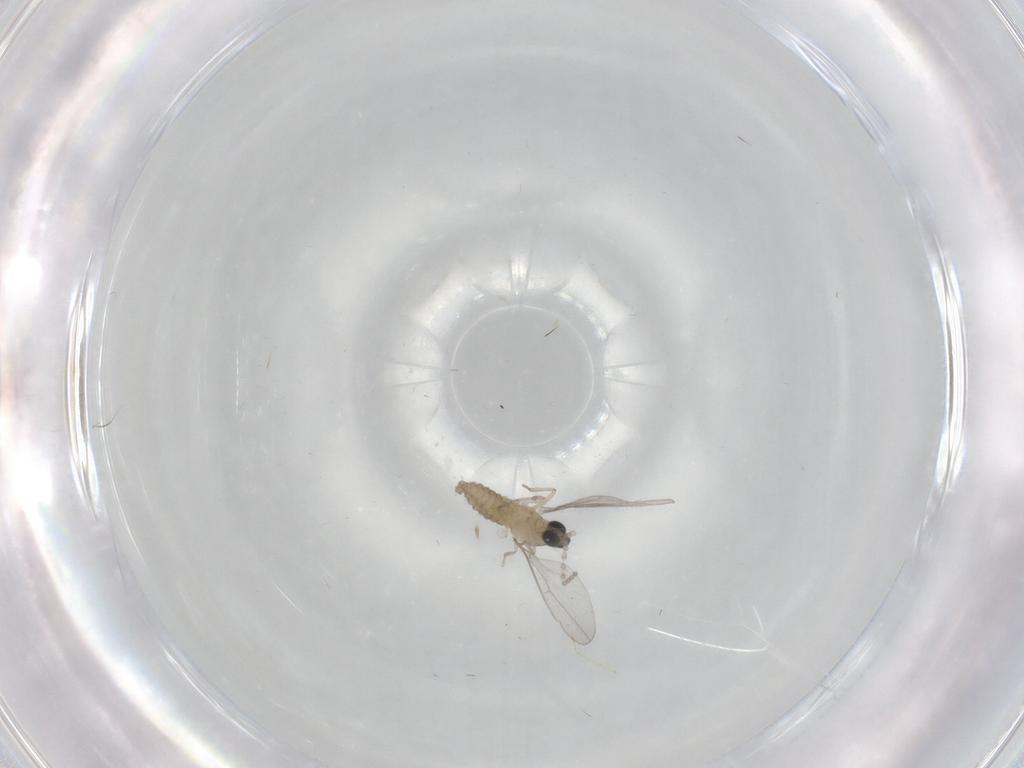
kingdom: Animalia
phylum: Arthropoda
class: Insecta
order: Diptera
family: Cecidomyiidae
